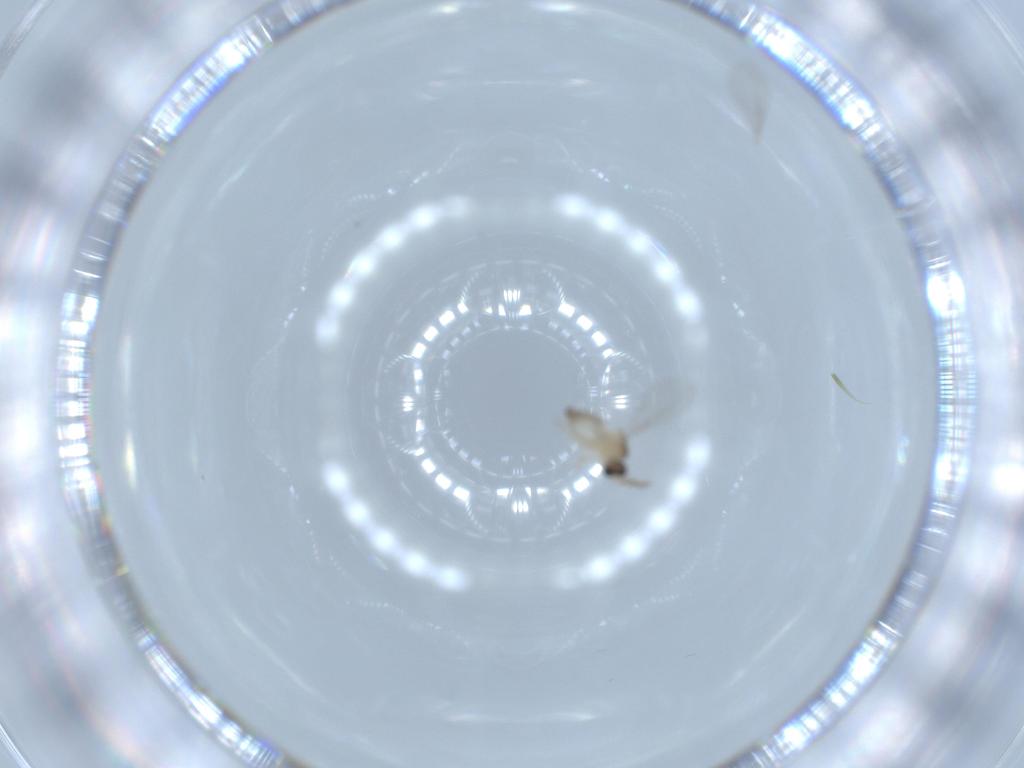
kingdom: Animalia
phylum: Arthropoda
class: Insecta
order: Diptera
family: Cecidomyiidae
